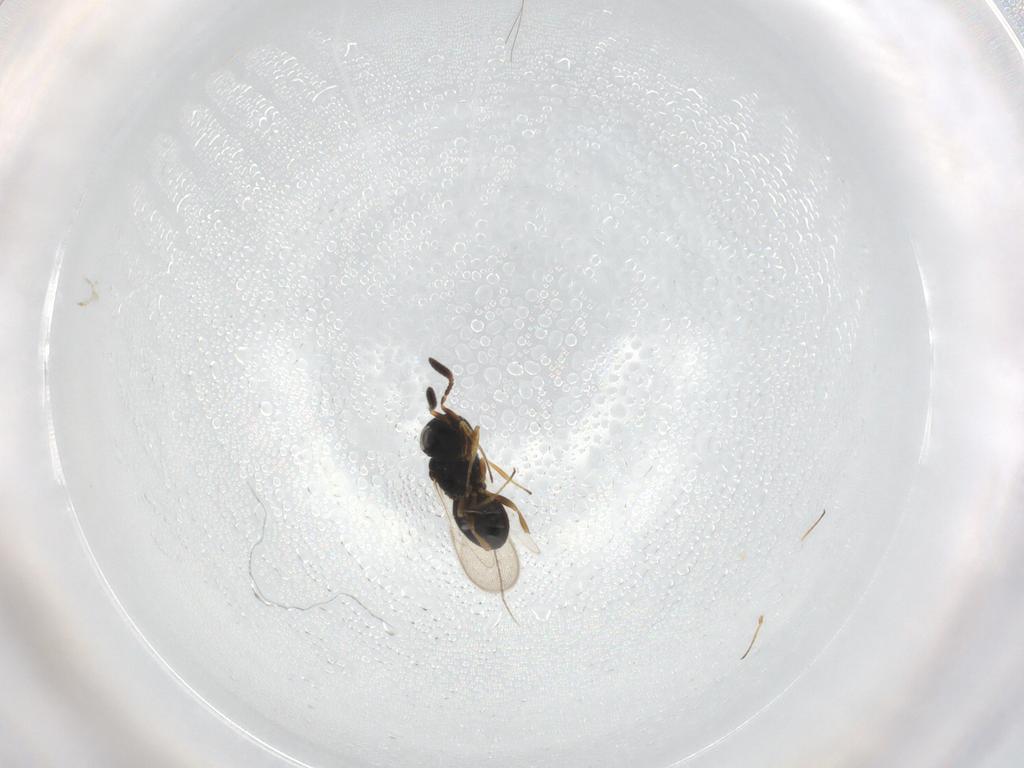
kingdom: Animalia
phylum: Arthropoda
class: Insecta
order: Hymenoptera
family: Scelionidae
